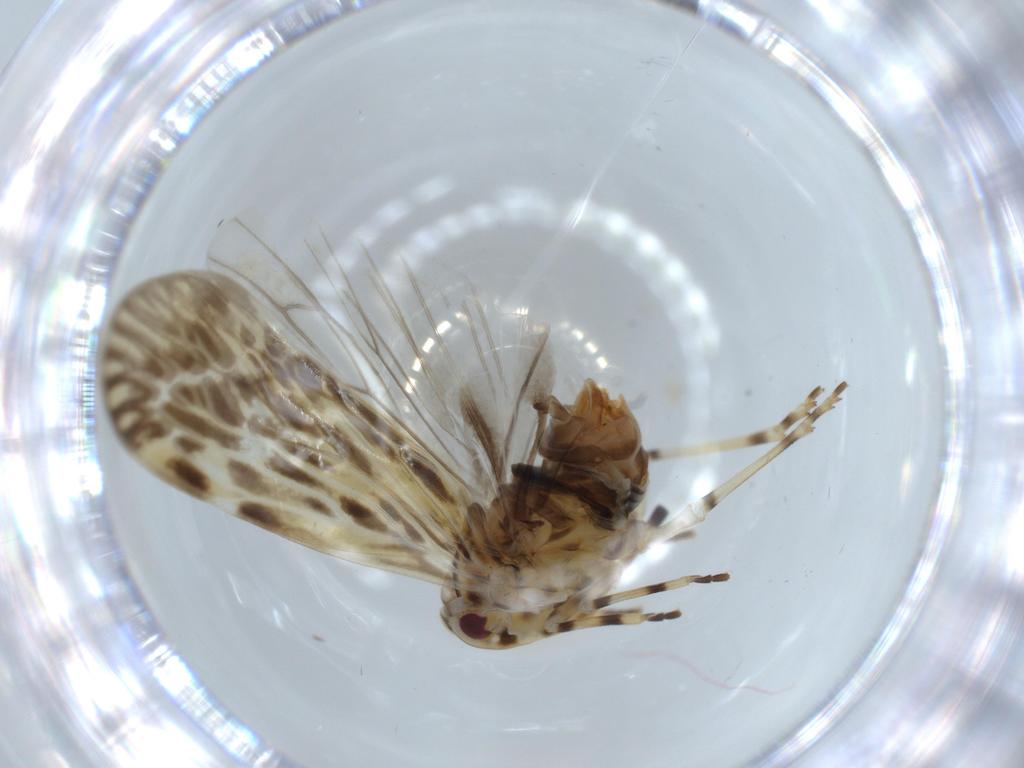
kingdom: Animalia
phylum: Arthropoda
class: Insecta
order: Hemiptera
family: Derbidae
